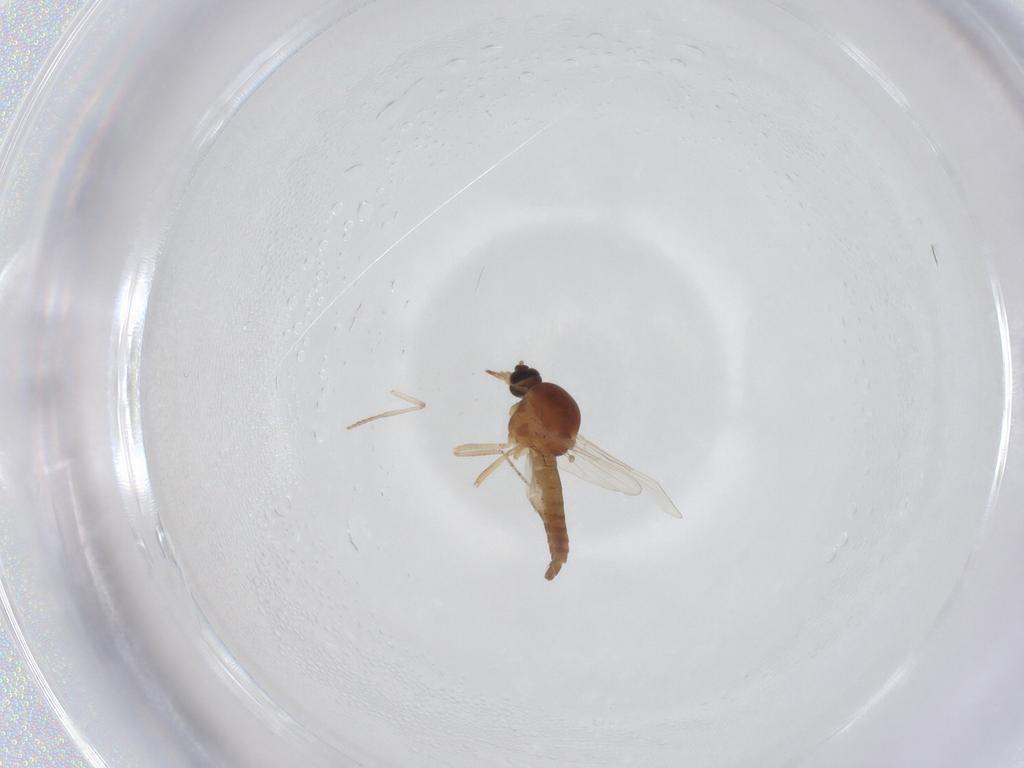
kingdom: Animalia
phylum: Arthropoda
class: Insecta
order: Diptera
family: Ceratopogonidae
